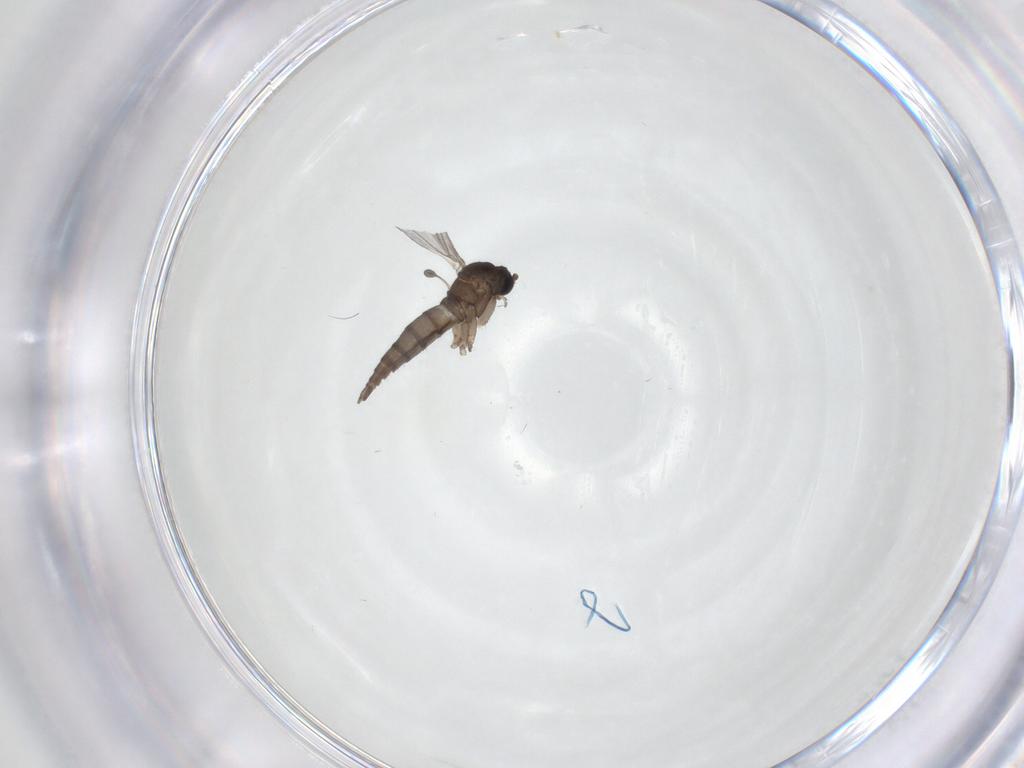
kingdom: Animalia
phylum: Arthropoda
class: Insecta
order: Diptera
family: Sciaridae
